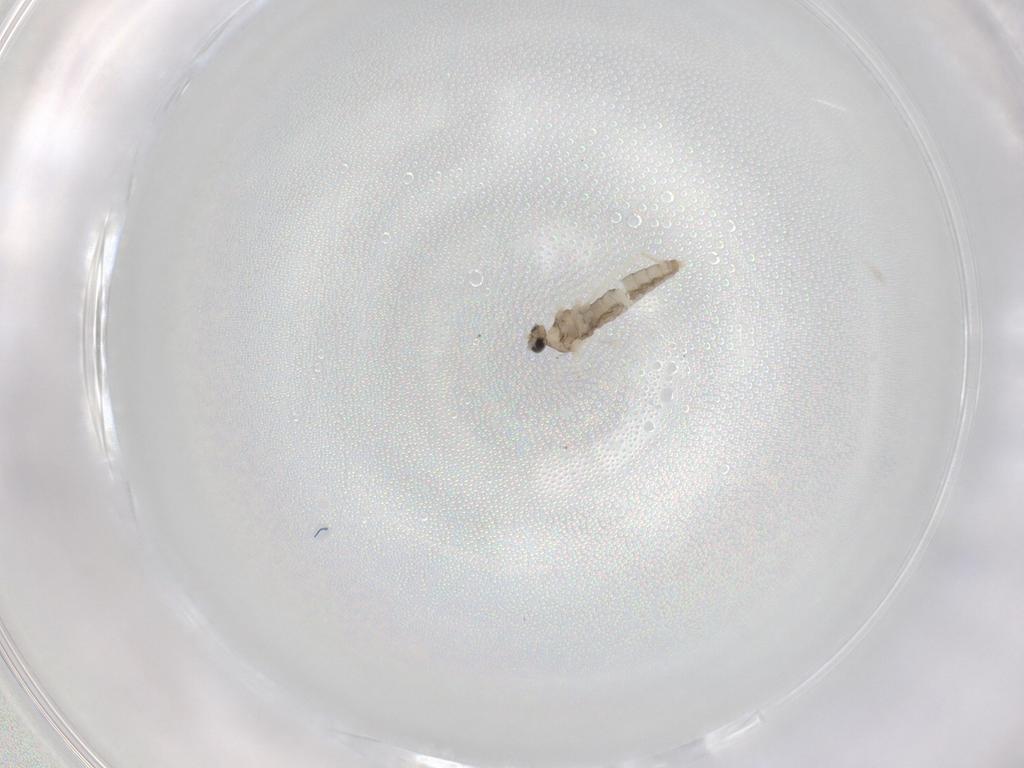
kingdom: Animalia
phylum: Arthropoda
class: Insecta
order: Diptera
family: Cecidomyiidae
